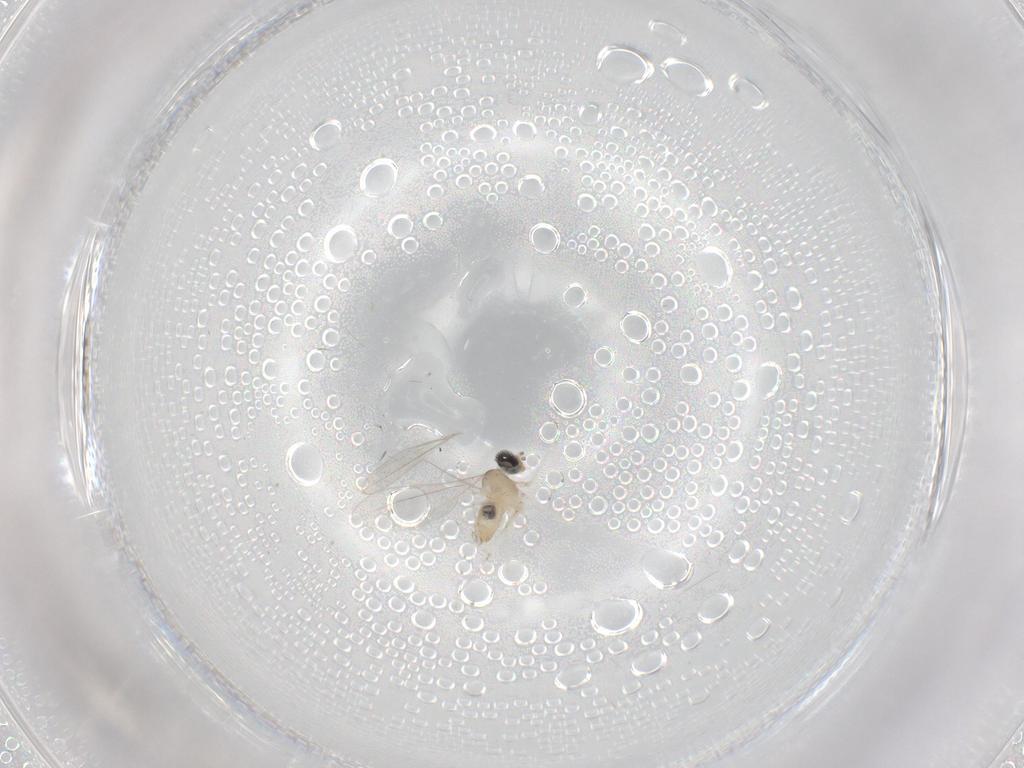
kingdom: Animalia
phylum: Arthropoda
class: Insecta
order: Diptera
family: Cecidomyiidae
